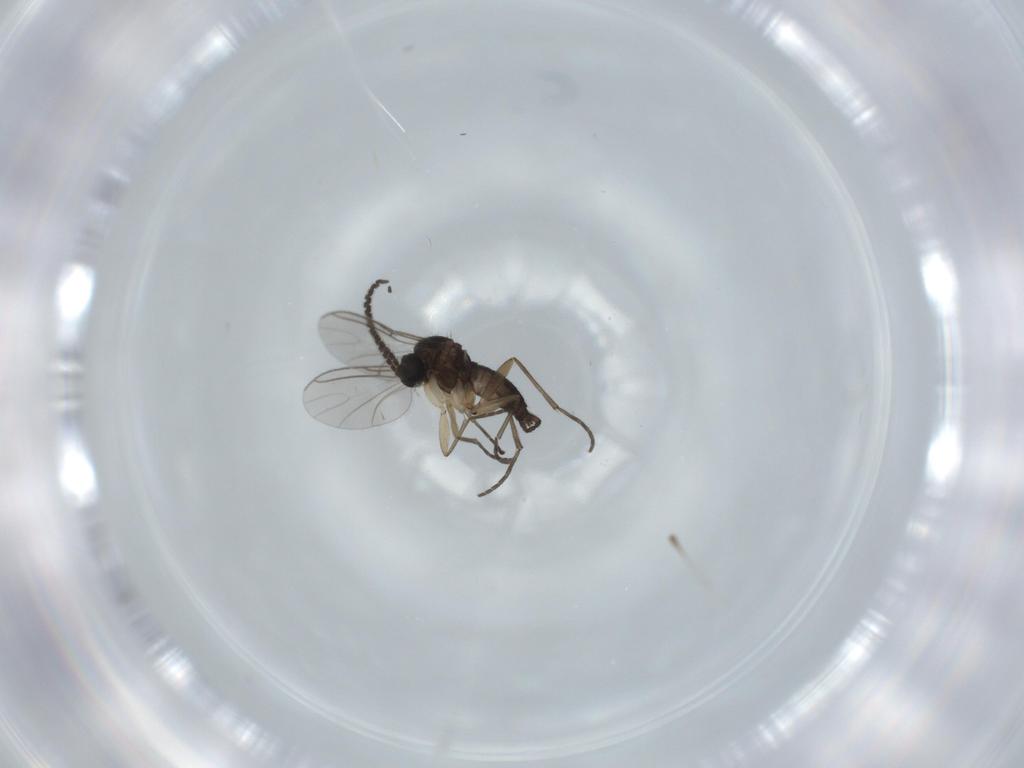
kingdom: Animalia
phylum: Arthropoda
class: Insecta
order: Diptera
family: Sciaridae
